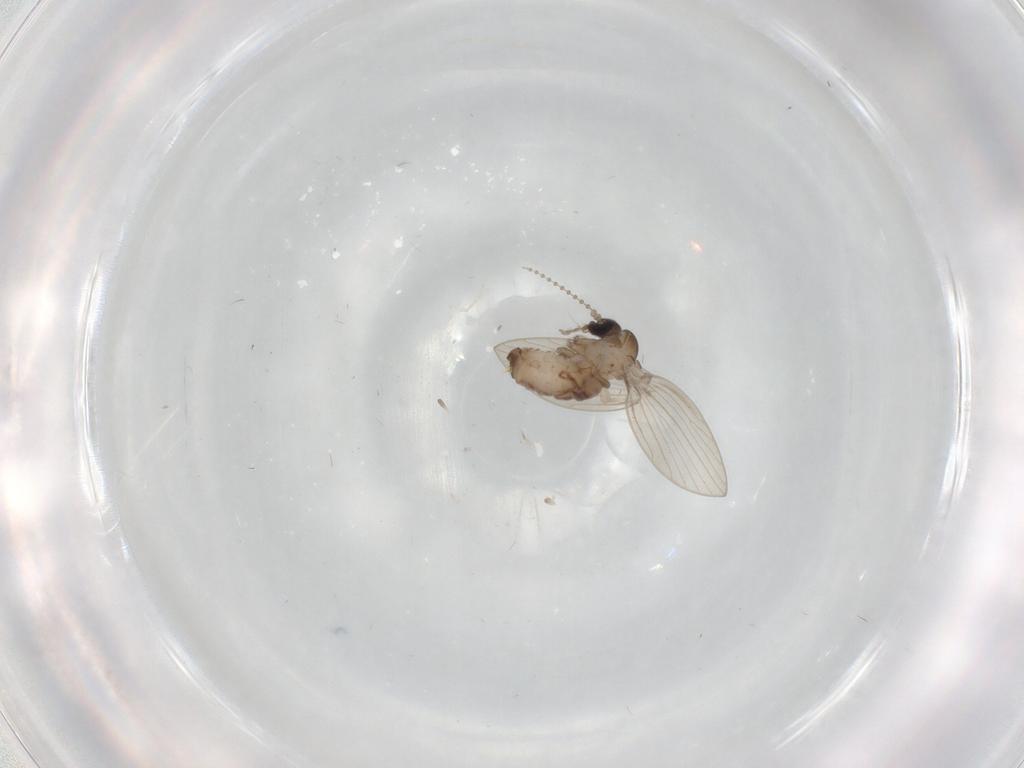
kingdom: Animalia
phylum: Arthropoda
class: Insecta
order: Diptera
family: Psychodidae
